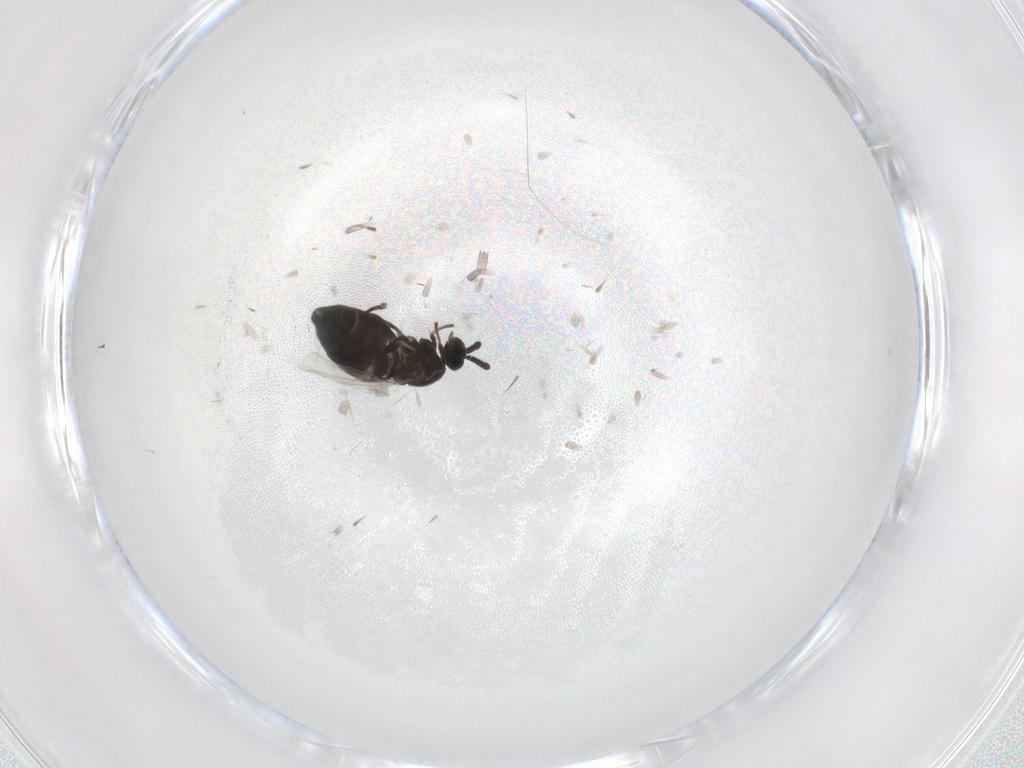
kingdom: Animalia
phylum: Arthropoda
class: Insecta
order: Diptera
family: Scatopsidae
